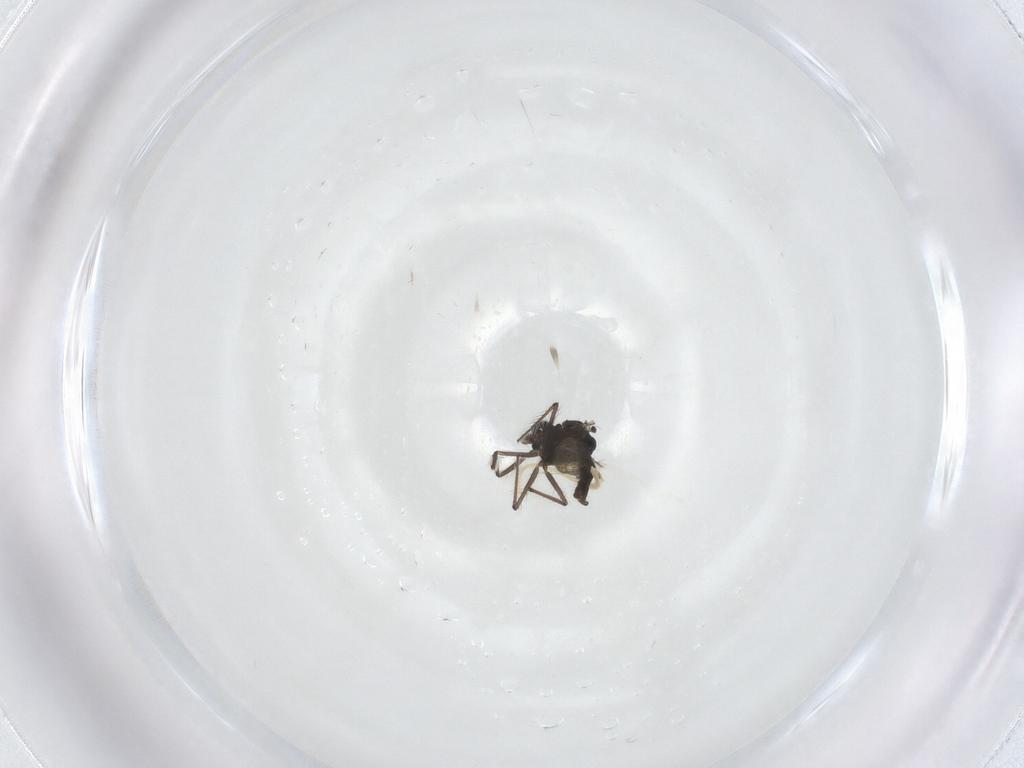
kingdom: Animalia
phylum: Arthropoda
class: Insecta
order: Diptera
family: Chironomidae
